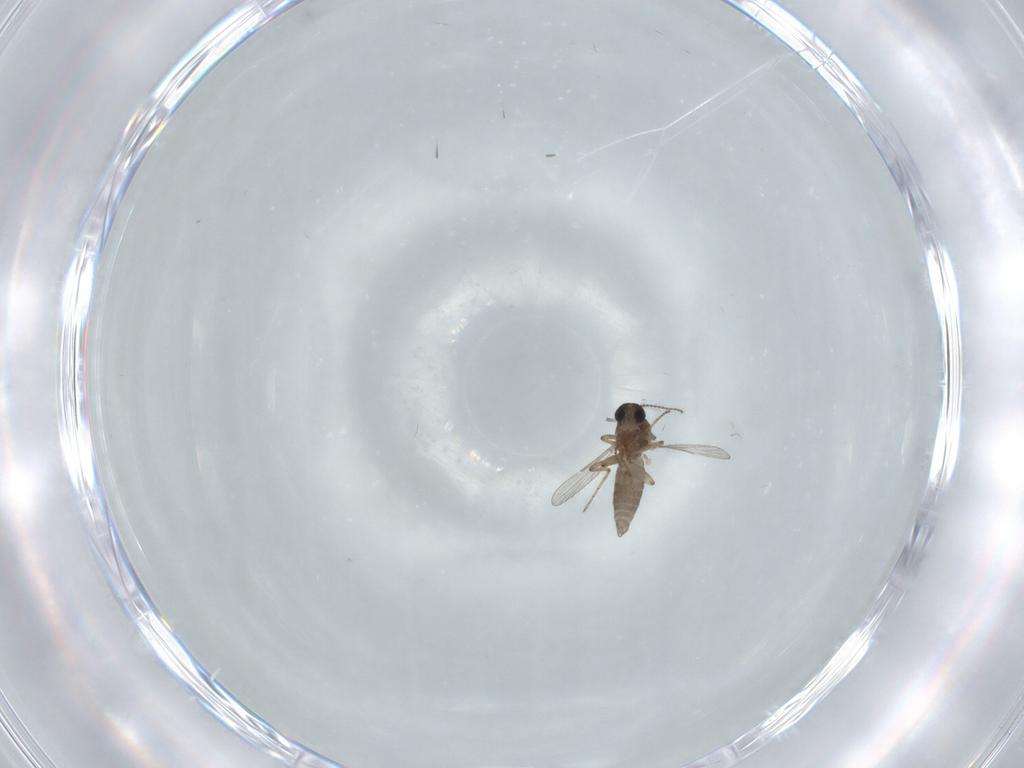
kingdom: Animalia
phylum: Arthropoda
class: Insecta
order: Diptera
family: Ceratopogonidae
